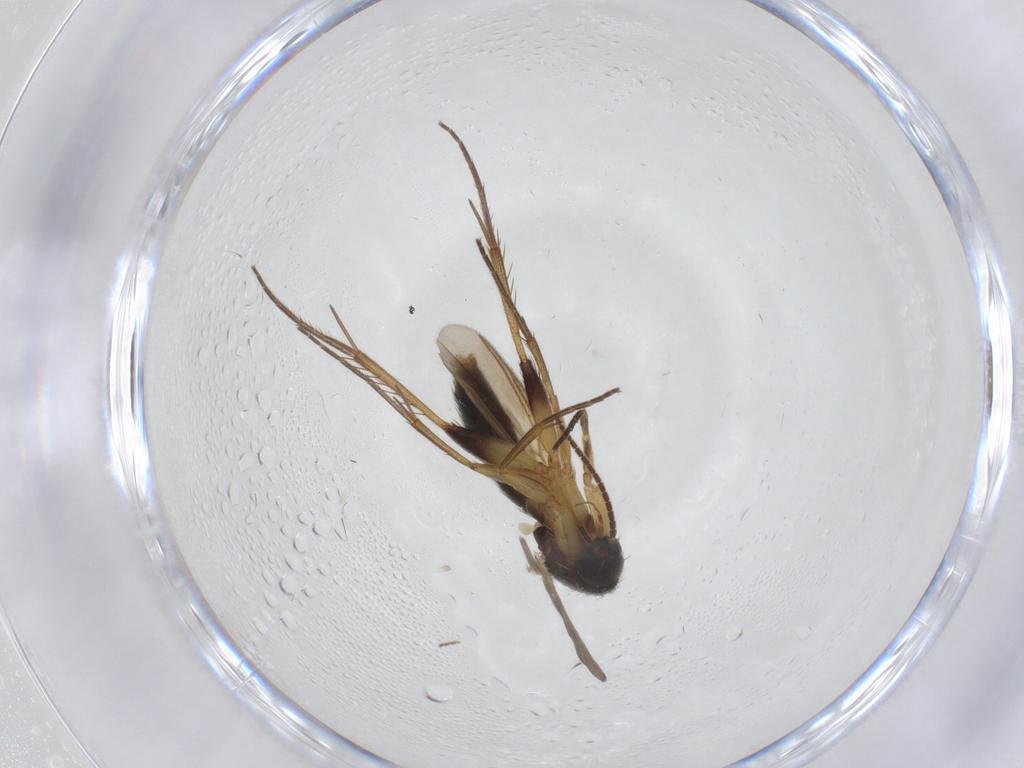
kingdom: Animalia
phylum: Arthropoda
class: Insecta
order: Diptera
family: Mycetophilidae
